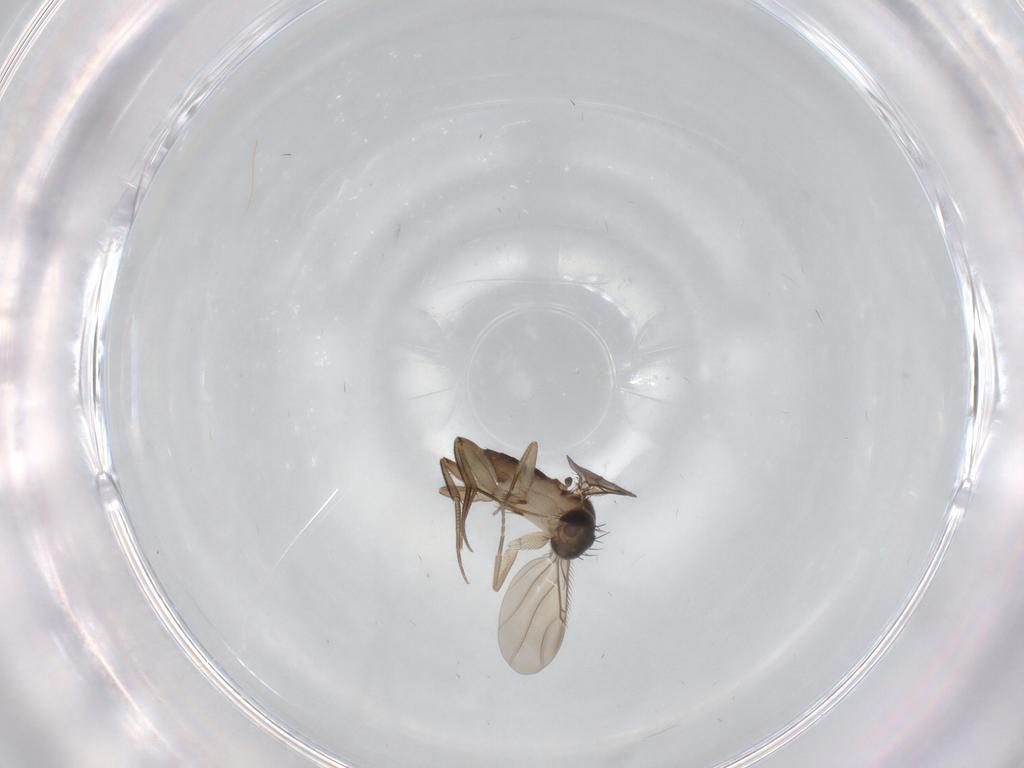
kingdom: Animalia
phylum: Arthropoda
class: Insecta
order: Diptera
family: Phoridae
